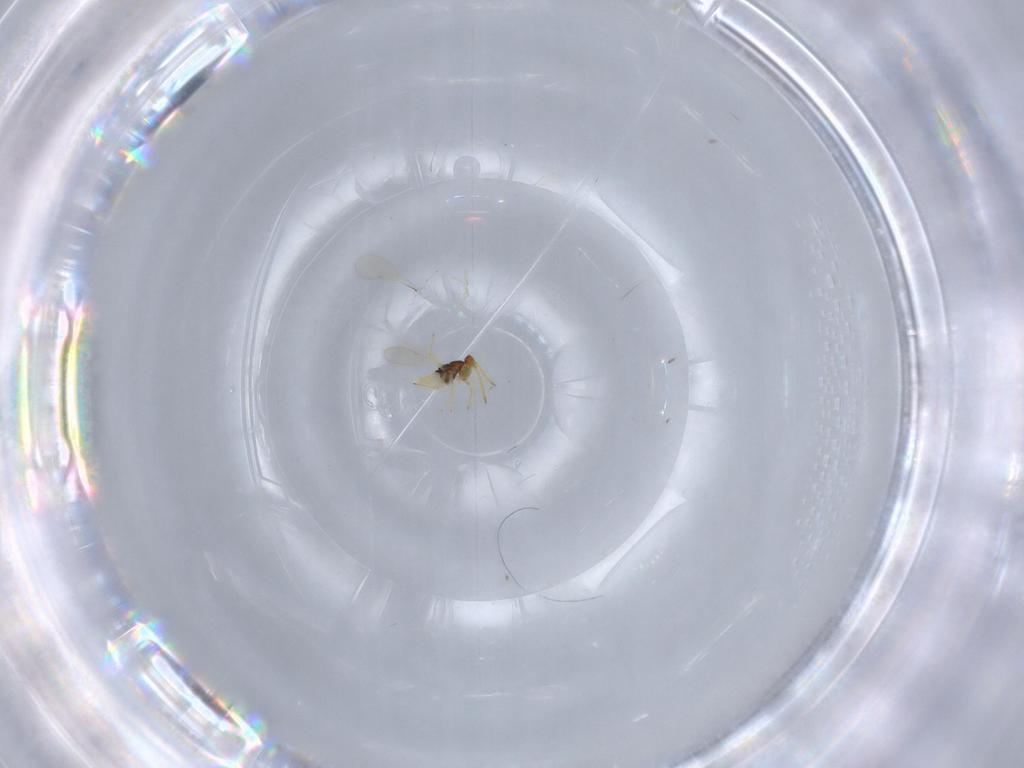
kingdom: Animalia
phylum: Arthropoda
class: Insecta
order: Hymenoptera
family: Aphelinidae
